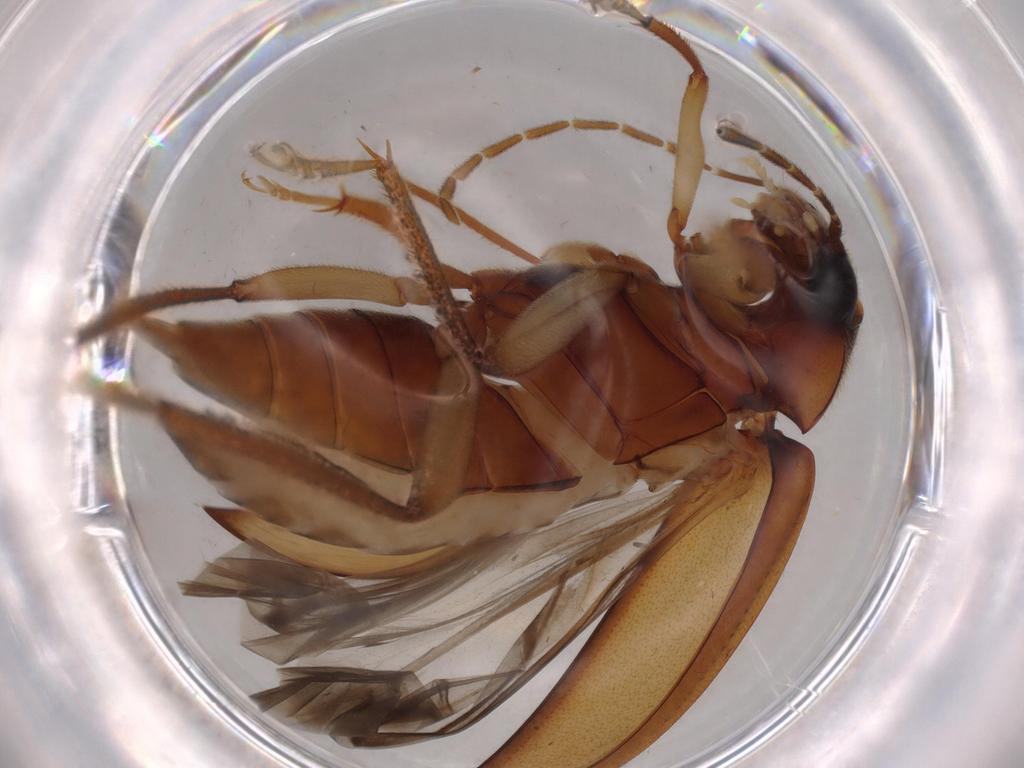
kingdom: Animalia
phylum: Arthropoda
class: Insecta
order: Coleoptera
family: Ptilodactylidae
